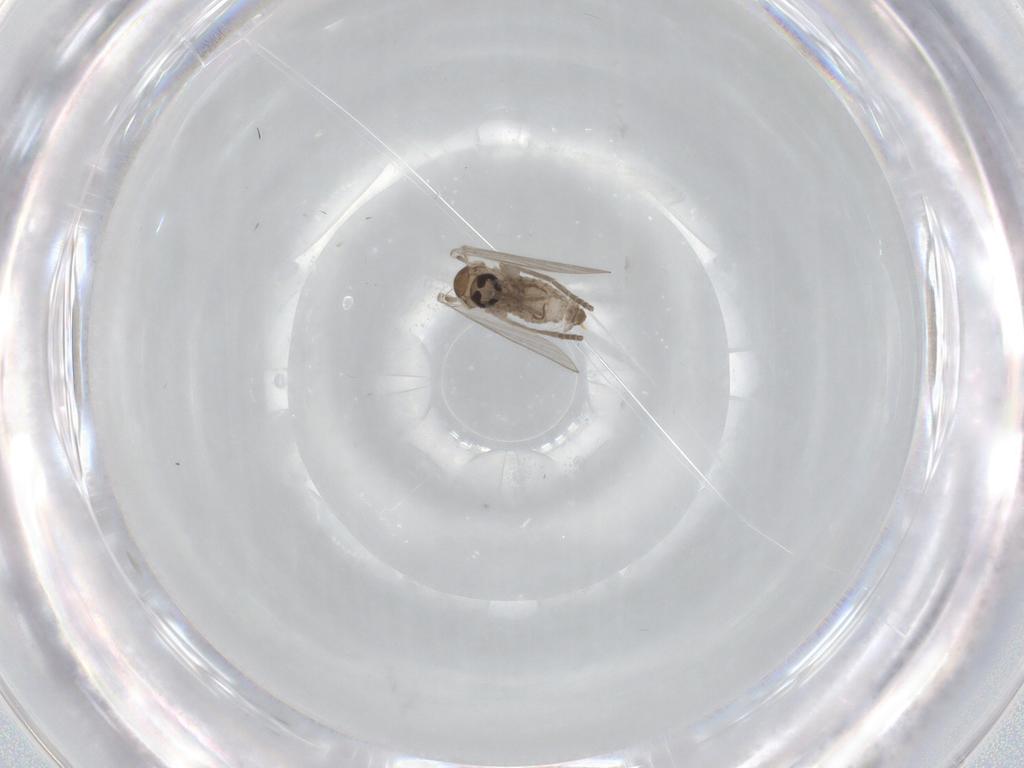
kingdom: Animalia
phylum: Arthropoda
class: Insecta
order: Diptera
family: Psychodidae
